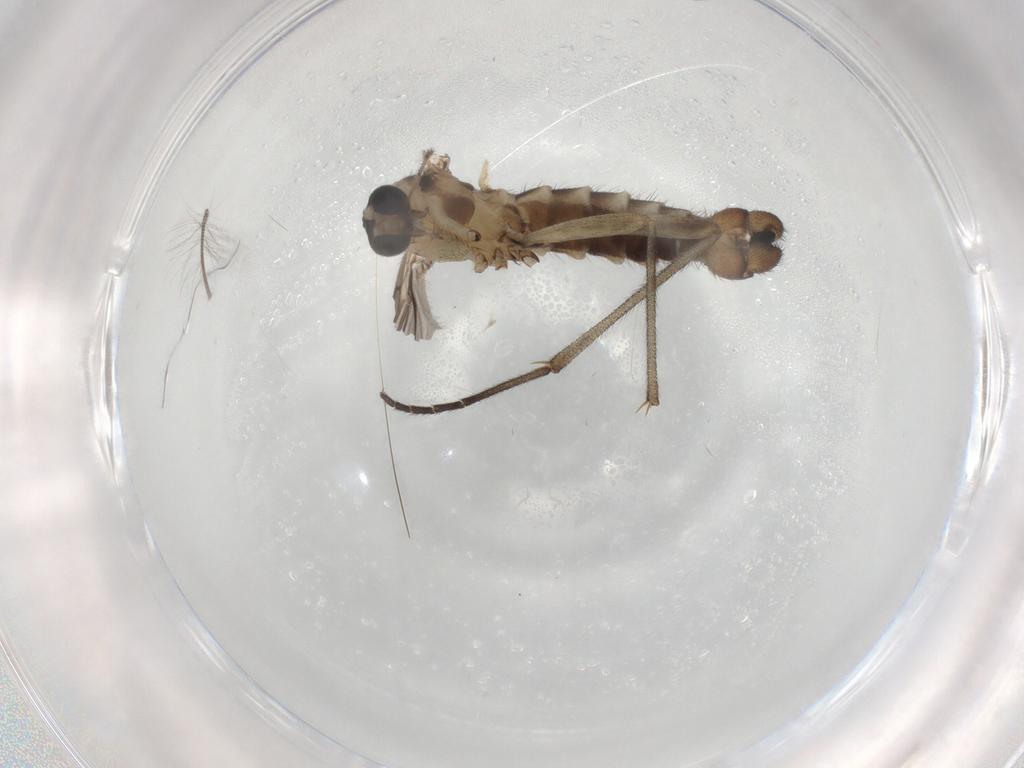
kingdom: Animalia
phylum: Arthropoda
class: Insecta
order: Diptera
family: Sciaridae
